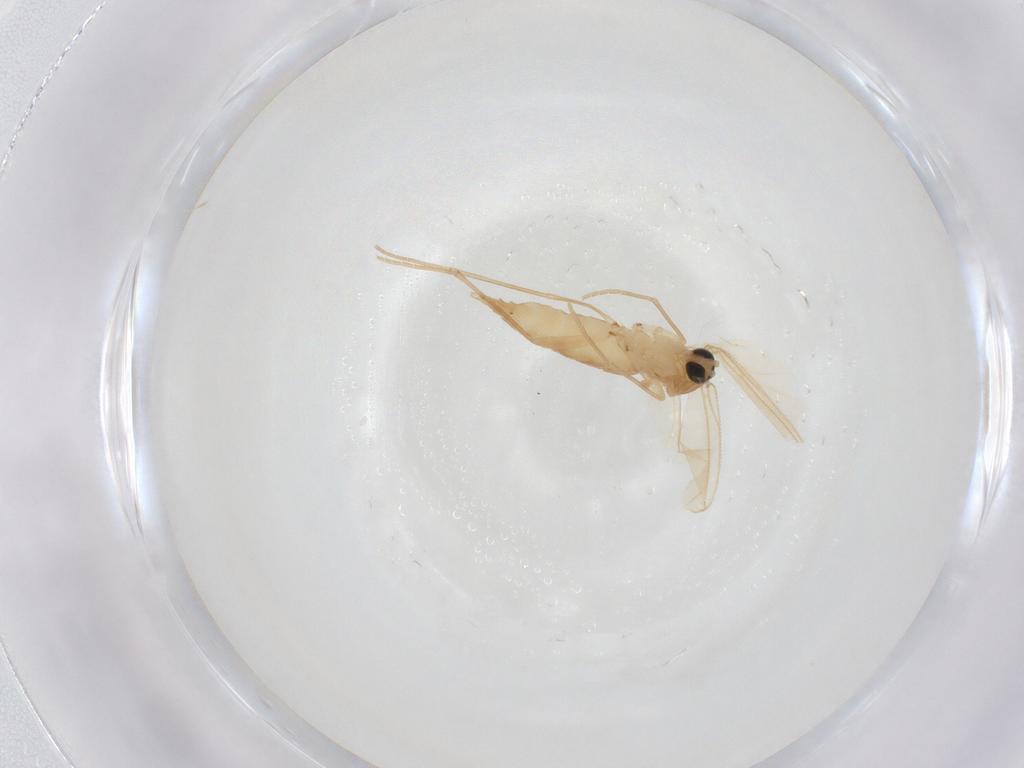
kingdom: Animalia
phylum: Arthropoda
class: Insecta
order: Diptera
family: Sciaridae
